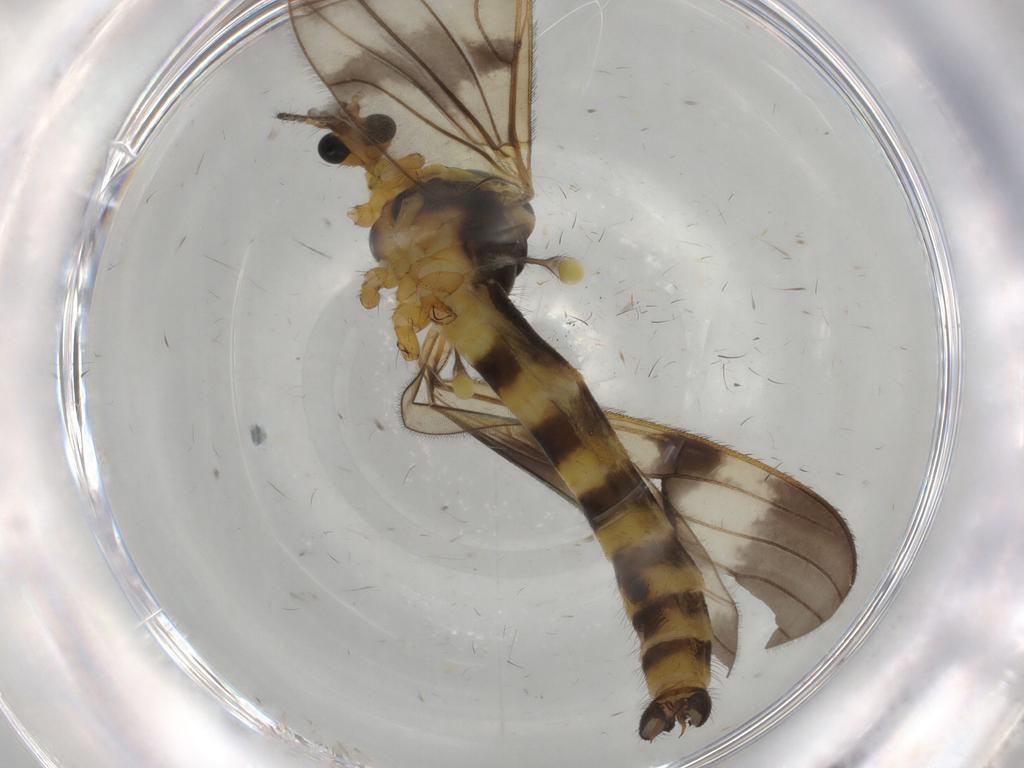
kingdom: Animalia
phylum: Arthropoda
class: Insecta
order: Diptera
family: Limoniidae
